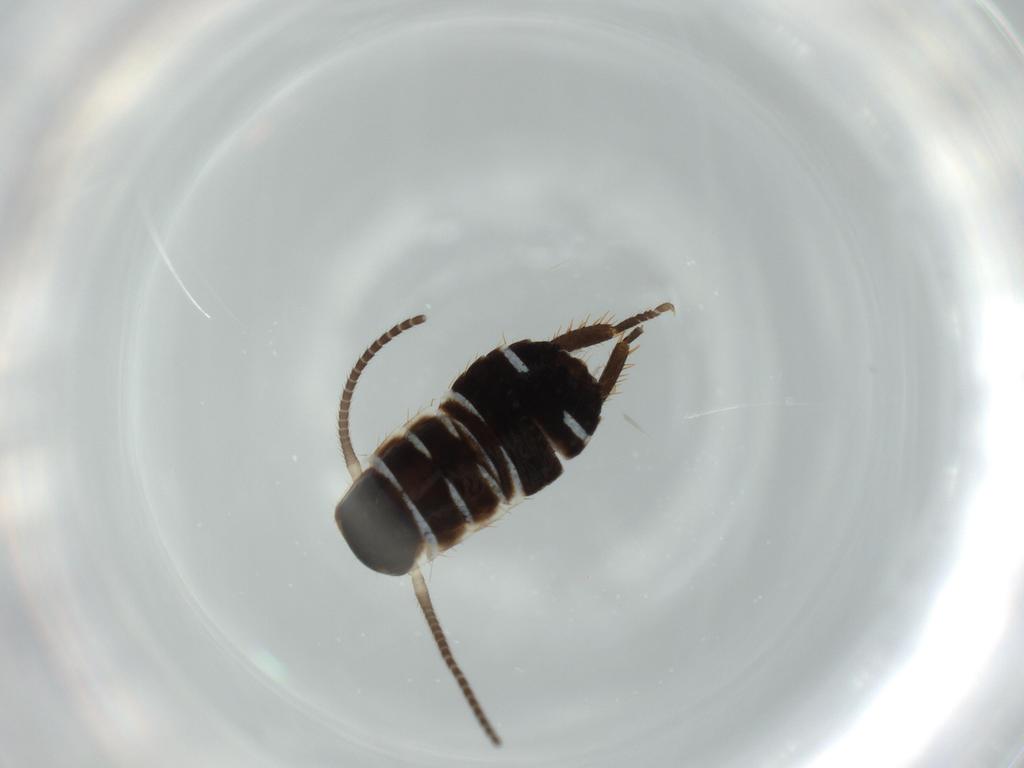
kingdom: Animalia
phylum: Arthropoda
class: Insecta
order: Blattodea
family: Ectobiidae
